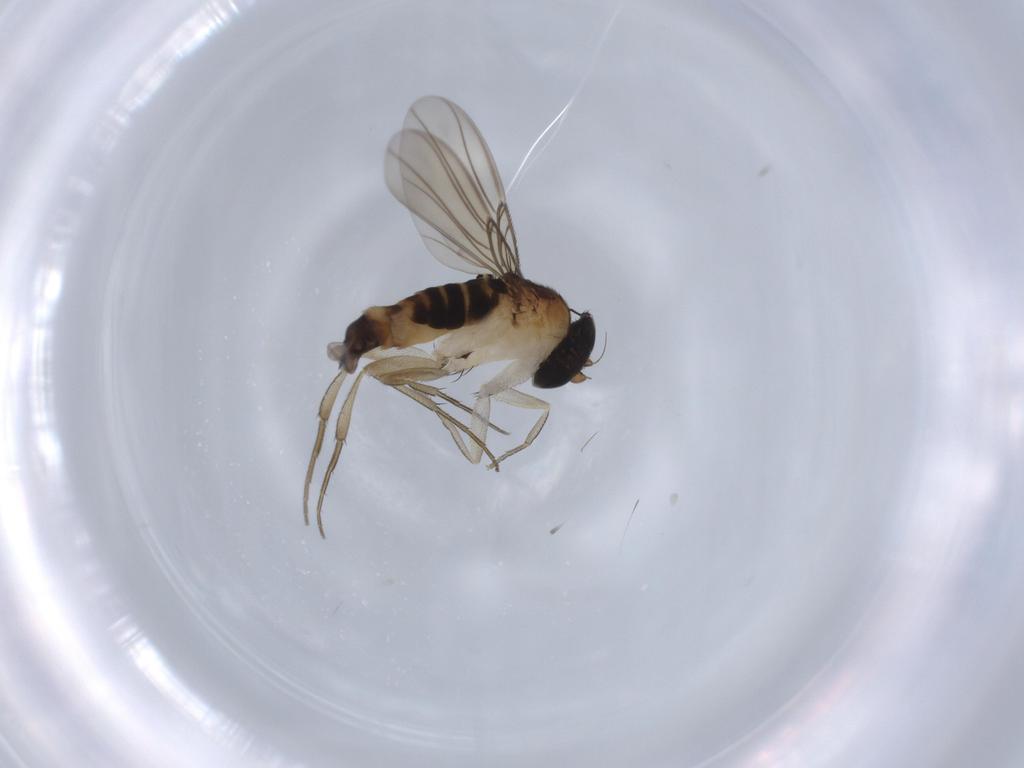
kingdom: Animalia
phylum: Arthropoda
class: Insecta
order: Diptera
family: Phoridae
